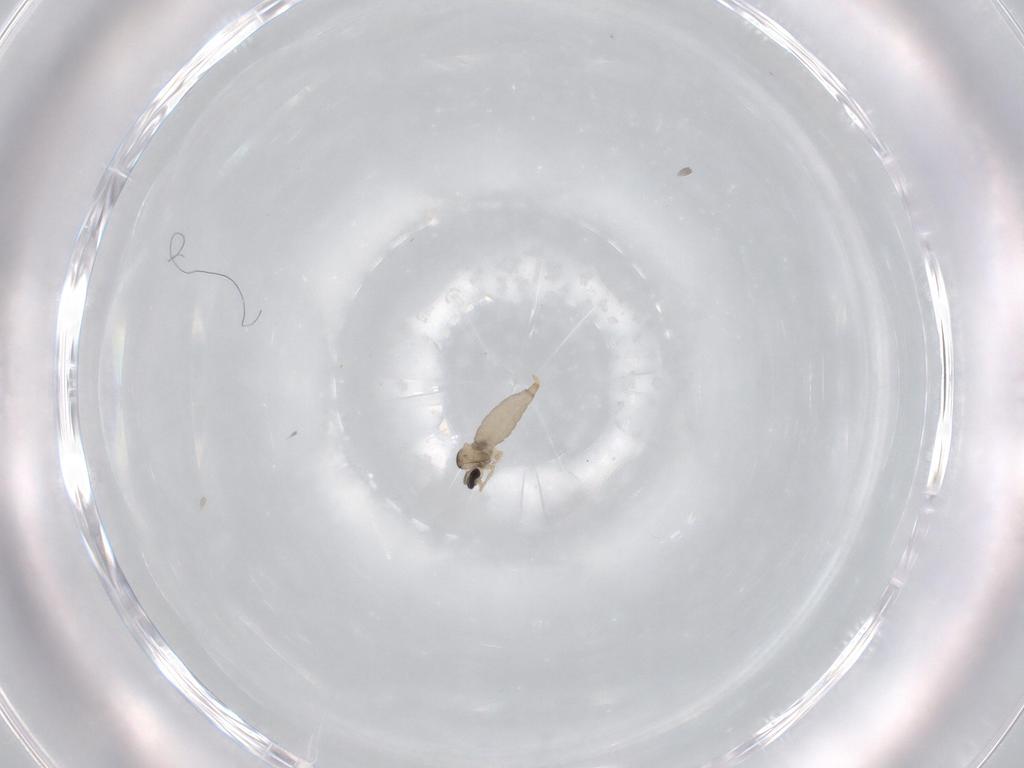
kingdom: Animalia
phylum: Arthropoda
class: Insecta
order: Diptera
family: Cecidomyiidae
